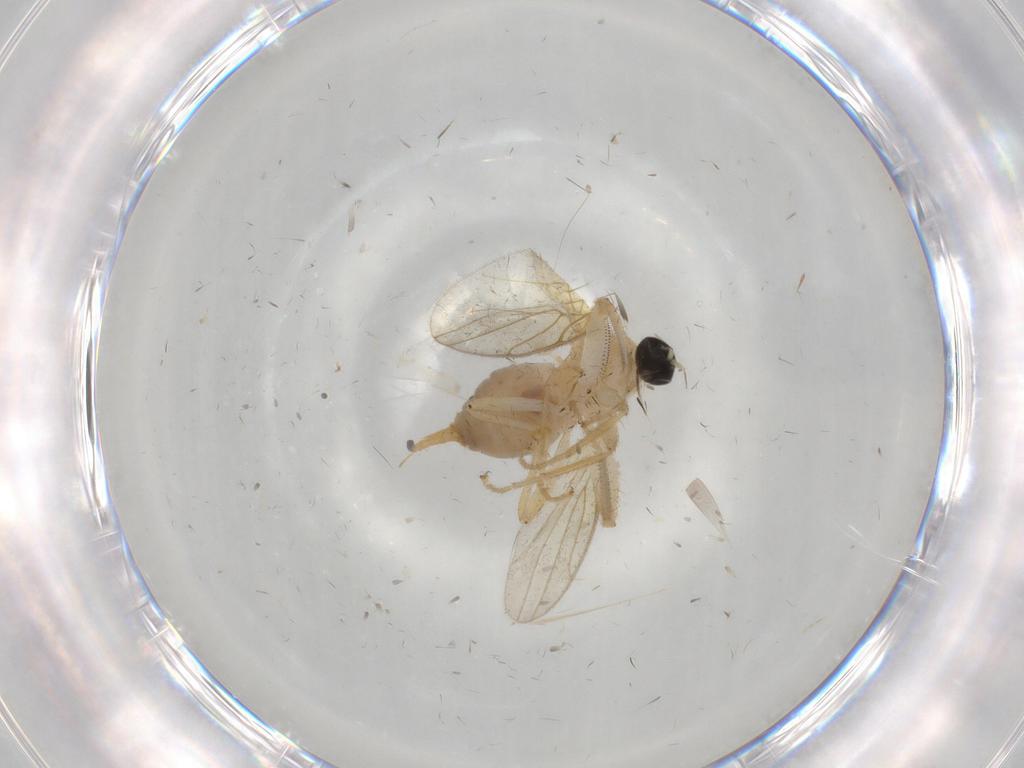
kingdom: Animalia
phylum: Arthropoda
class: Insecta
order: Diptera
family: Hybotidae
